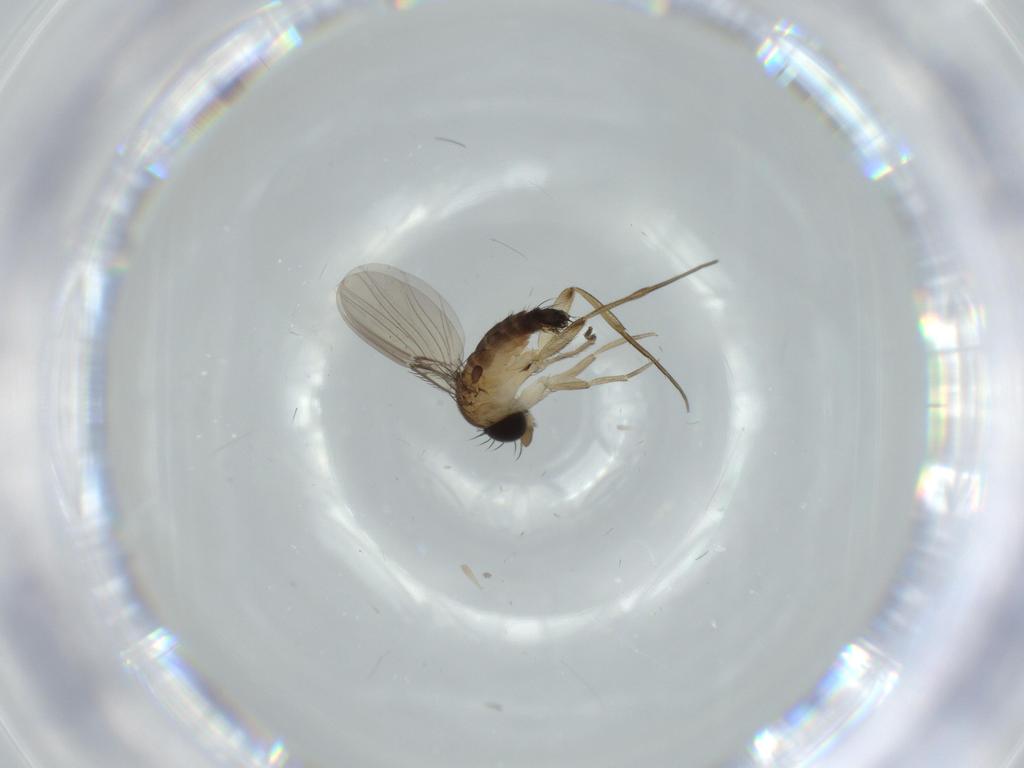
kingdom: Animalia
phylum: Arthropoda
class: Insecta
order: Diptera
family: Phoridae
